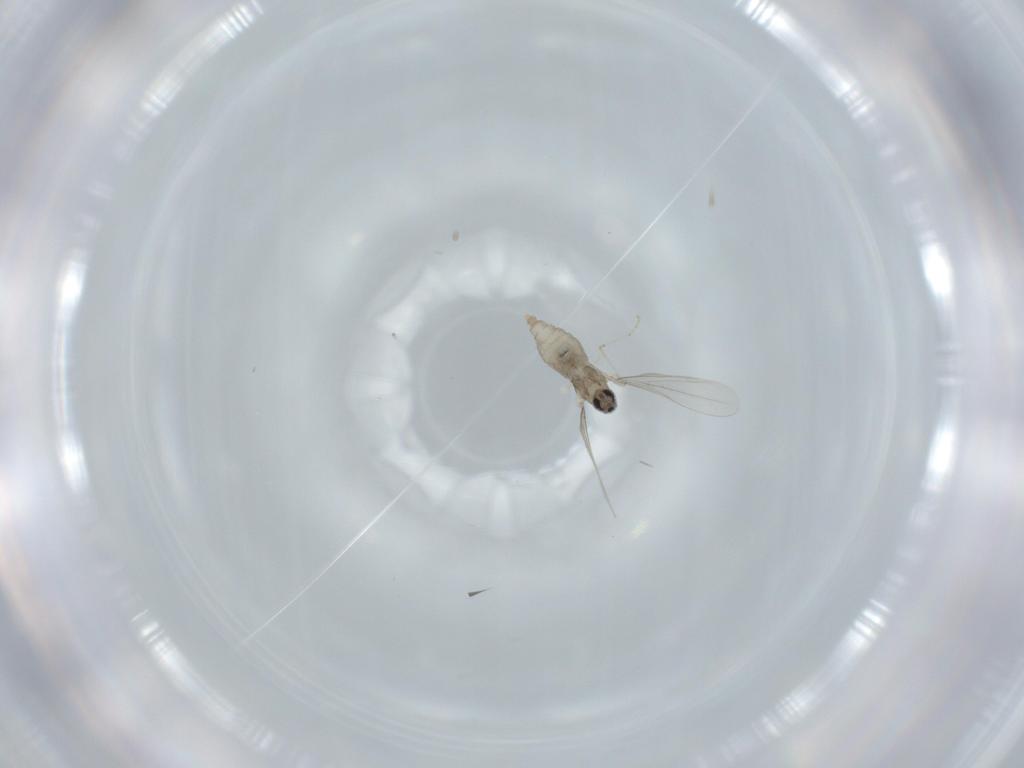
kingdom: Animalia
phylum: Arthropoda
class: Insecta
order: Diptera
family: Cecidomyiidae
